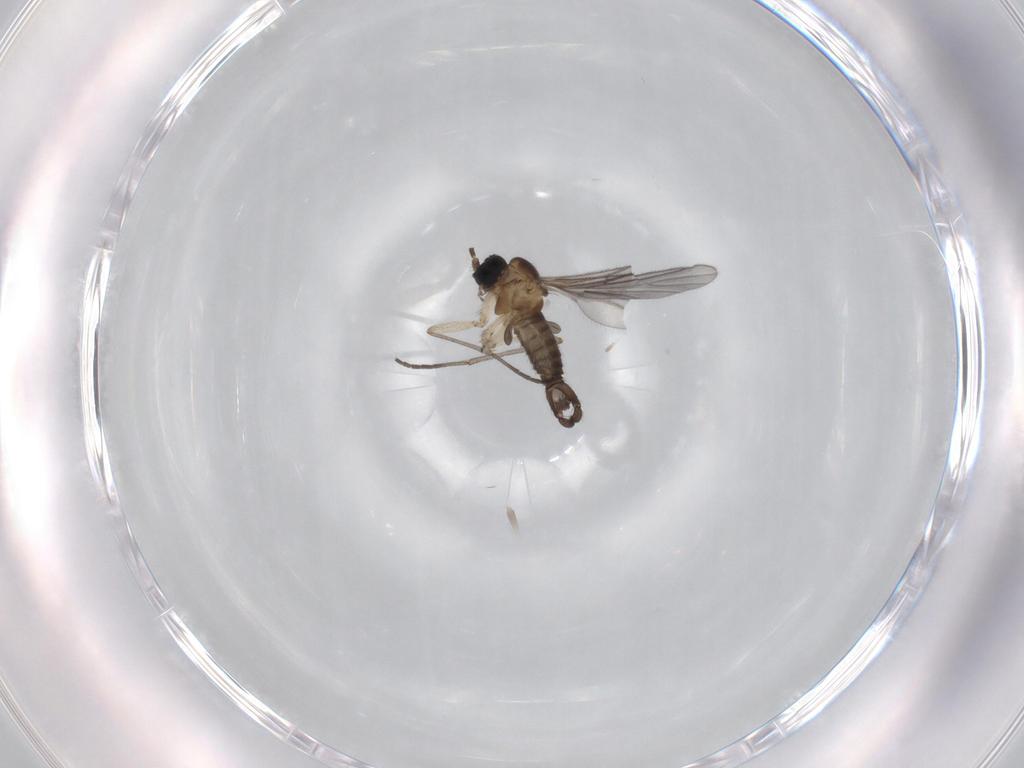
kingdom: Animalia
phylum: Arthropoda
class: Insecta
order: Diptera
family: Sciaridae
